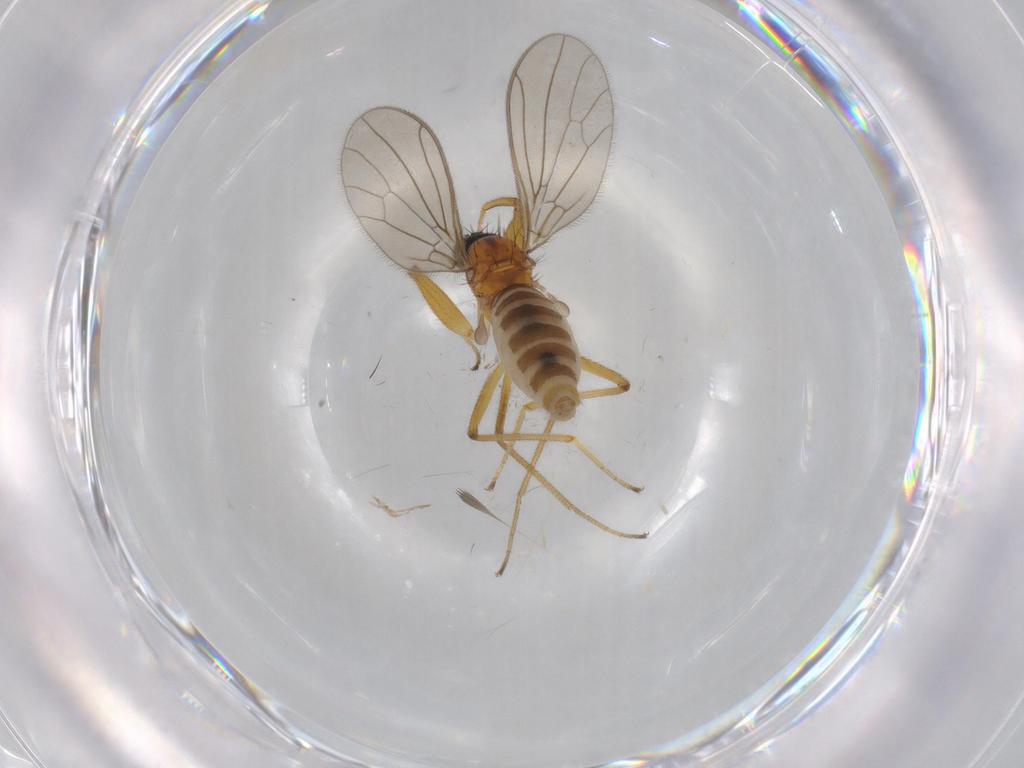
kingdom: Animalia
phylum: Arthropoda
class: Insecta
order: Diptera
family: Empididae
